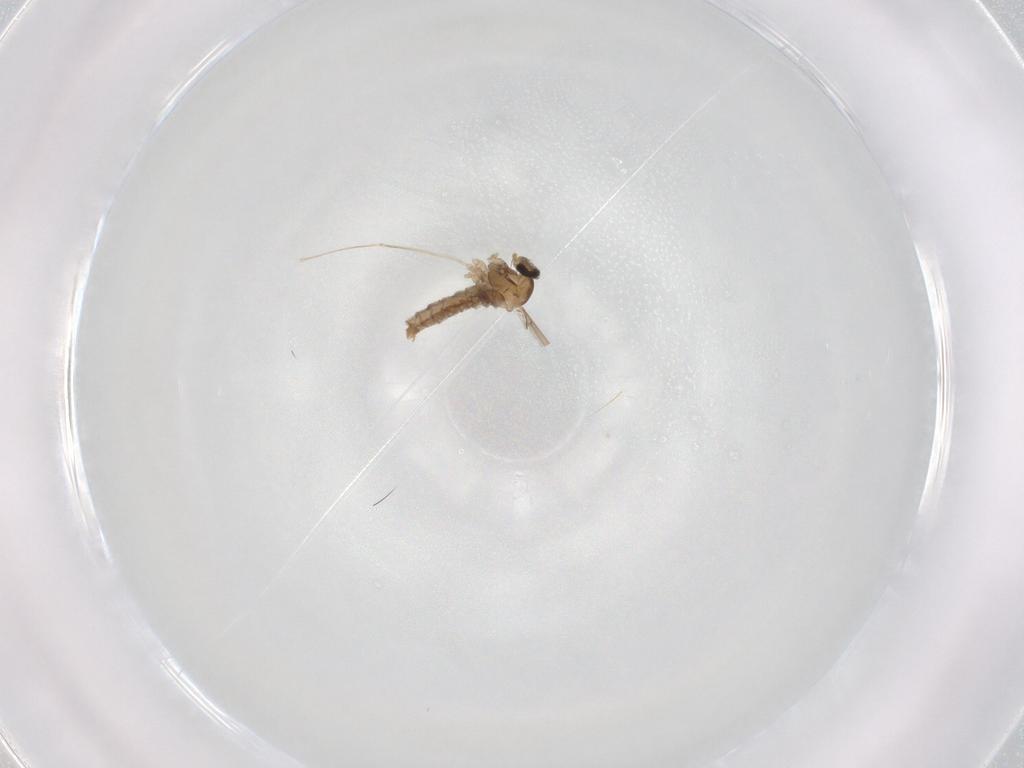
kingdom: Animalia
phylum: Arthropoda
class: Insecta
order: Diptera
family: Cecidomyiidae
